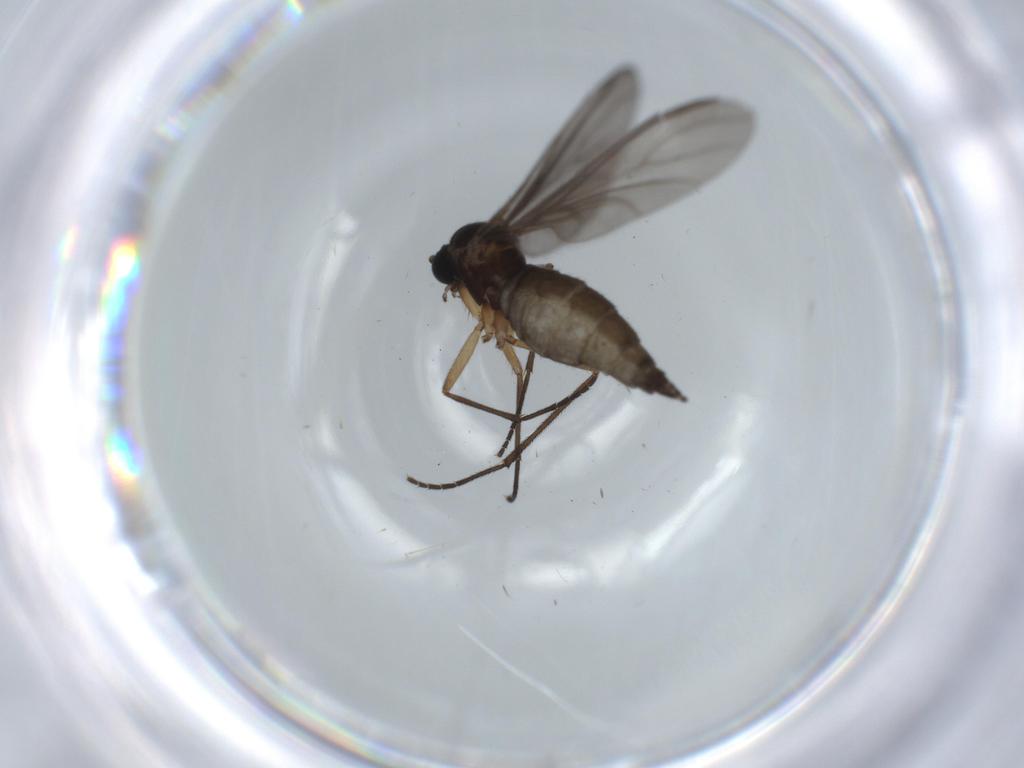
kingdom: Animalia
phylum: Arthropoda
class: Insecta
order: Diptera
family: Sciaridae
